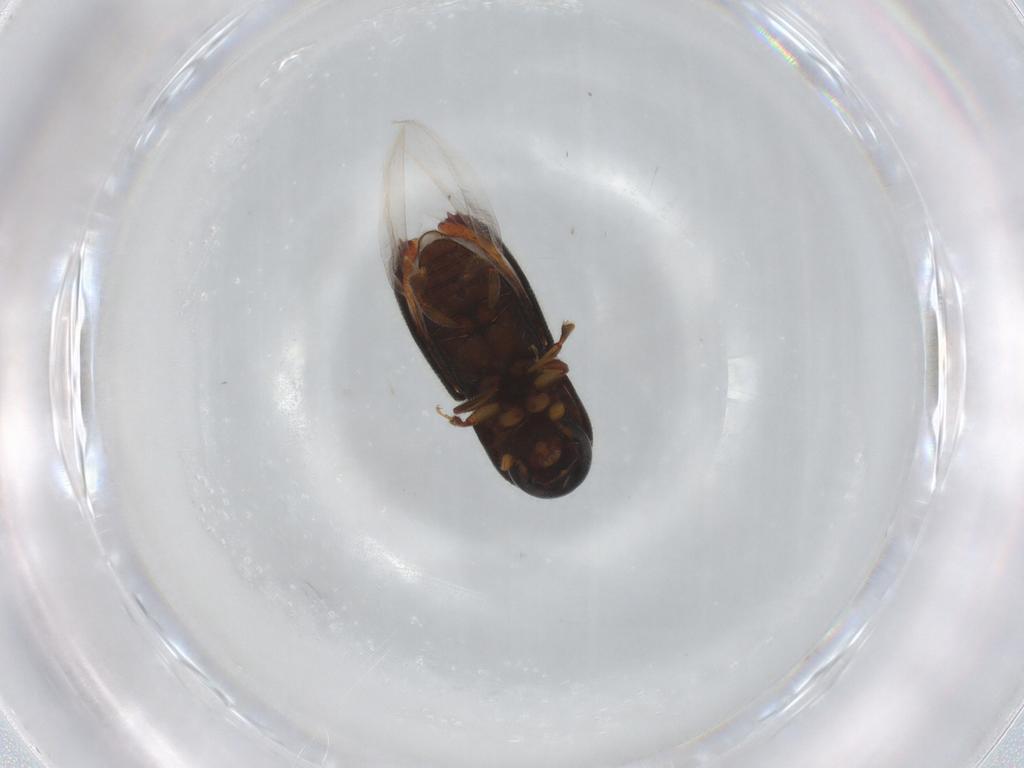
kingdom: Animalia
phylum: Arthropoda
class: Insecta
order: Coleoptera
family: Curculionidae
